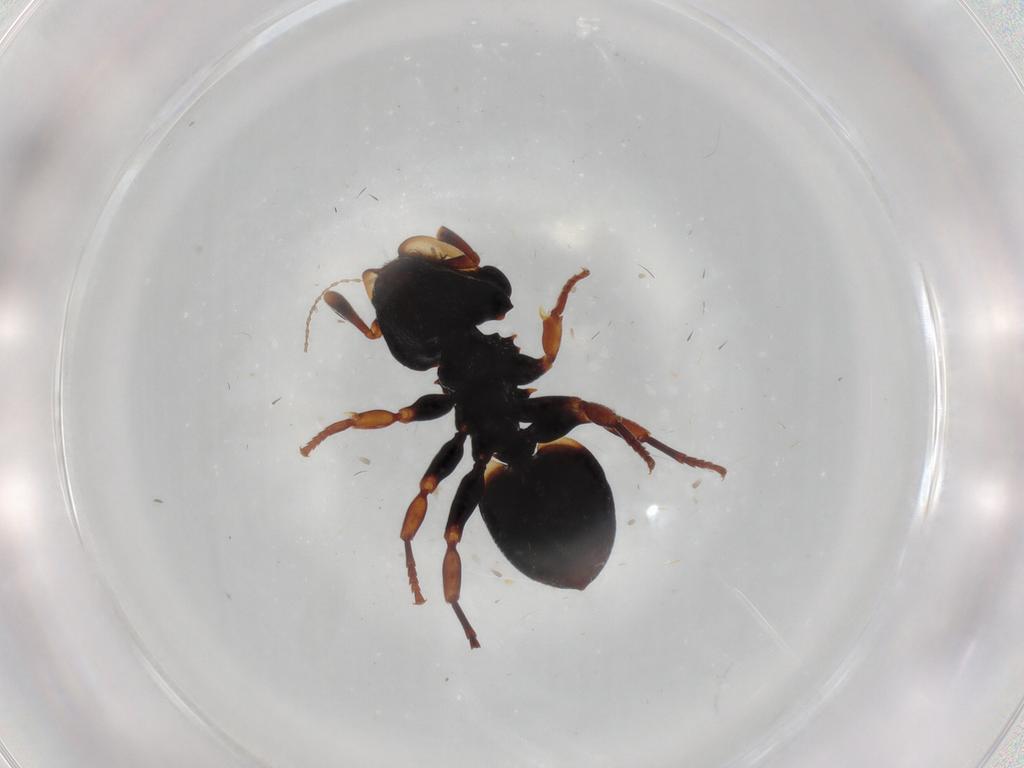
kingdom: Animalia
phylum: Arthropoda
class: Insecta
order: Hymenoptera
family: Formicidae
